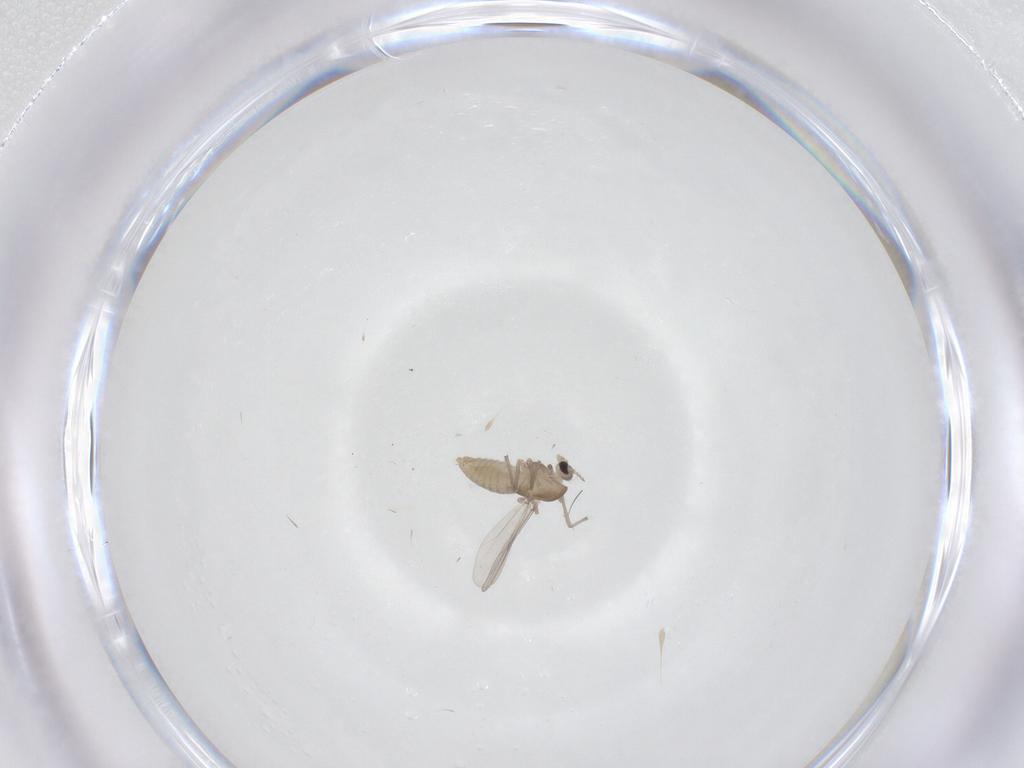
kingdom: Animalia
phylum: Arthropoda
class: Insecta
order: Diptera
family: Chironomidae
